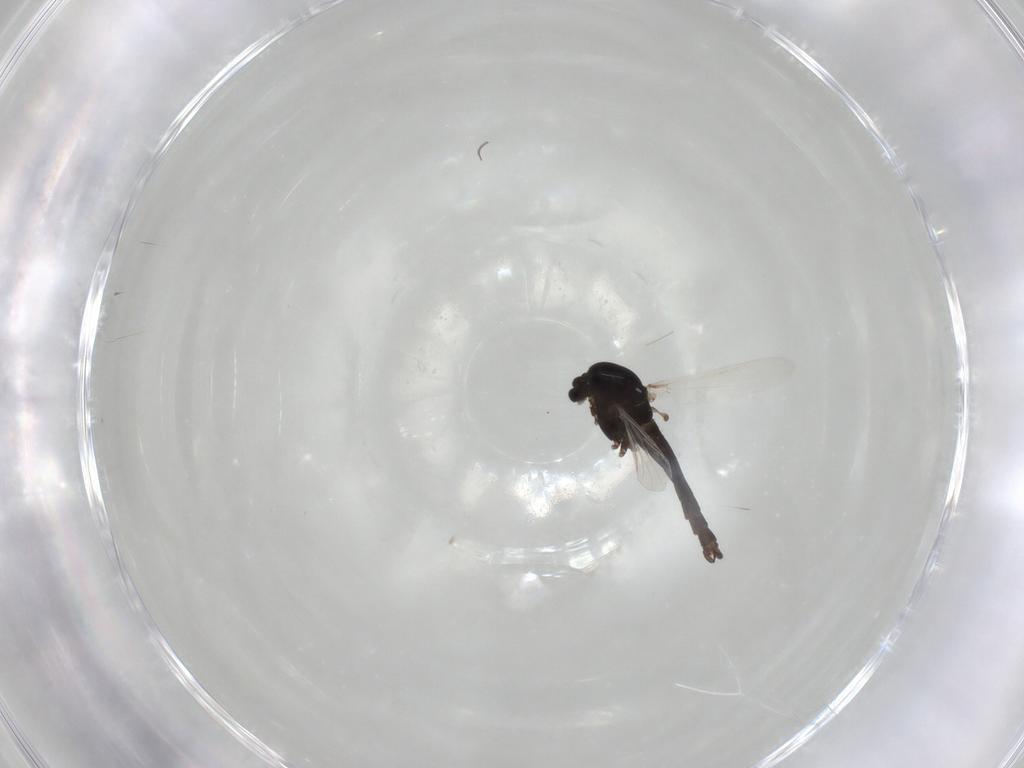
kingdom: Animalia
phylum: Arthropoda
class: Insecta
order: Diptera
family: Chironomidae
